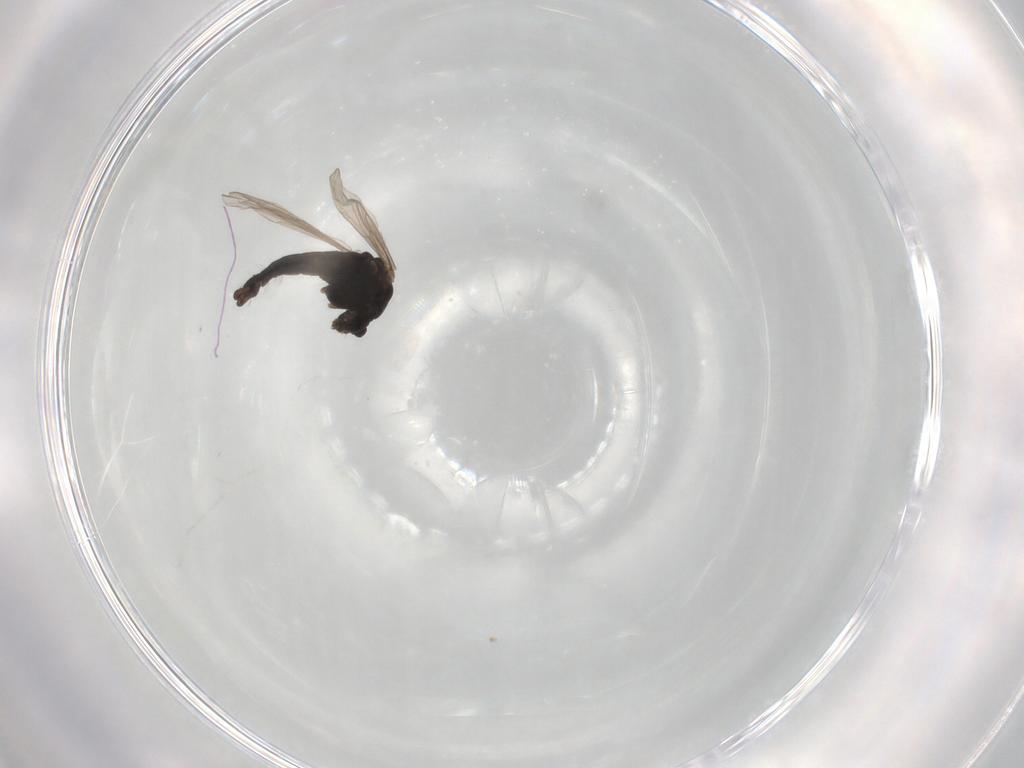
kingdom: Animalia
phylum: Arthropoda
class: Insecta
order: Diptera
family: Chironomidae
